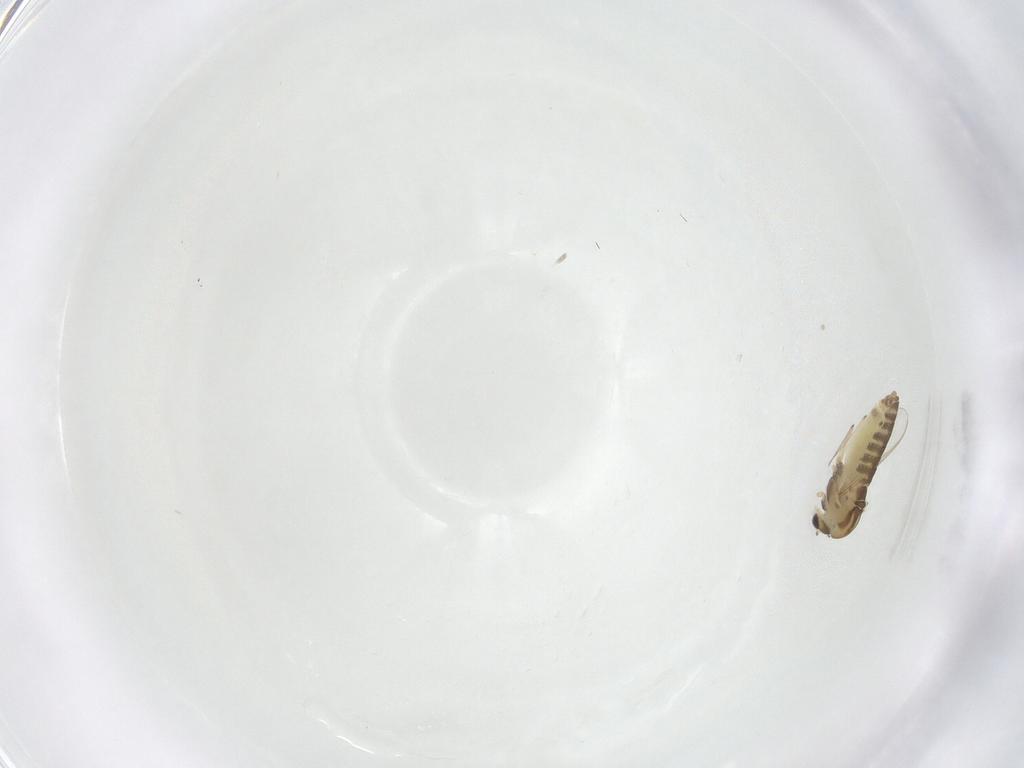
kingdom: Animalia
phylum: Arthropoda
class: Insecta
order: Diptera
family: Chironomidae
